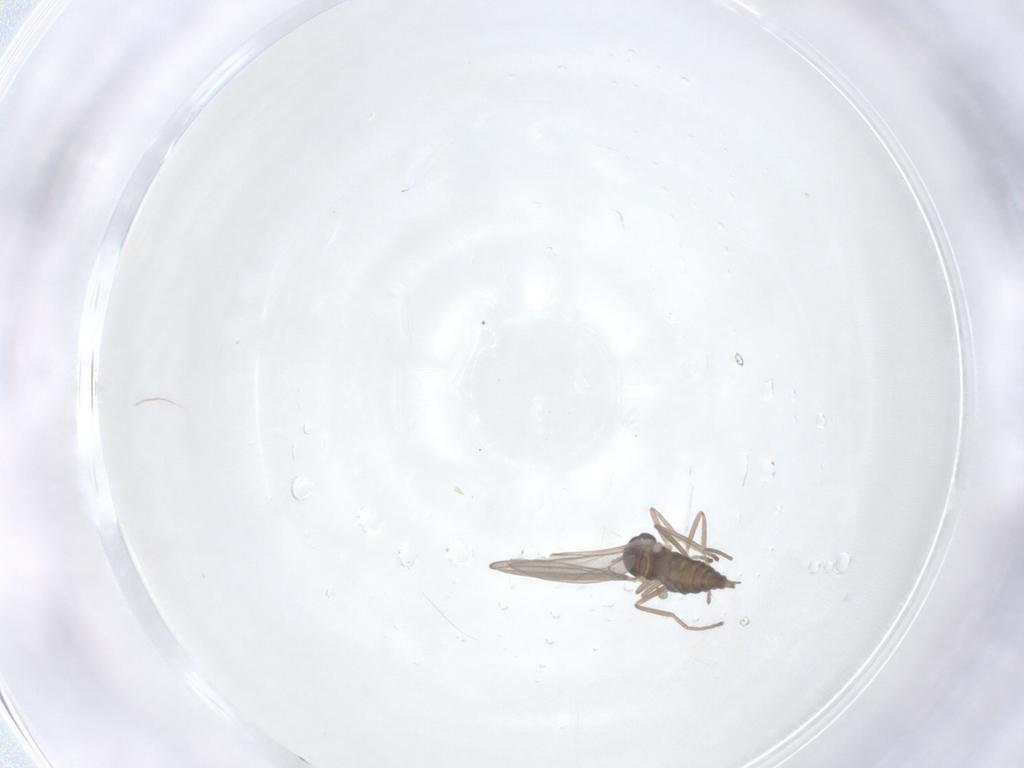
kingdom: Animalia
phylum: Arthropoda
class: Insecta
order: Diptera
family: Cecidomyiidae
